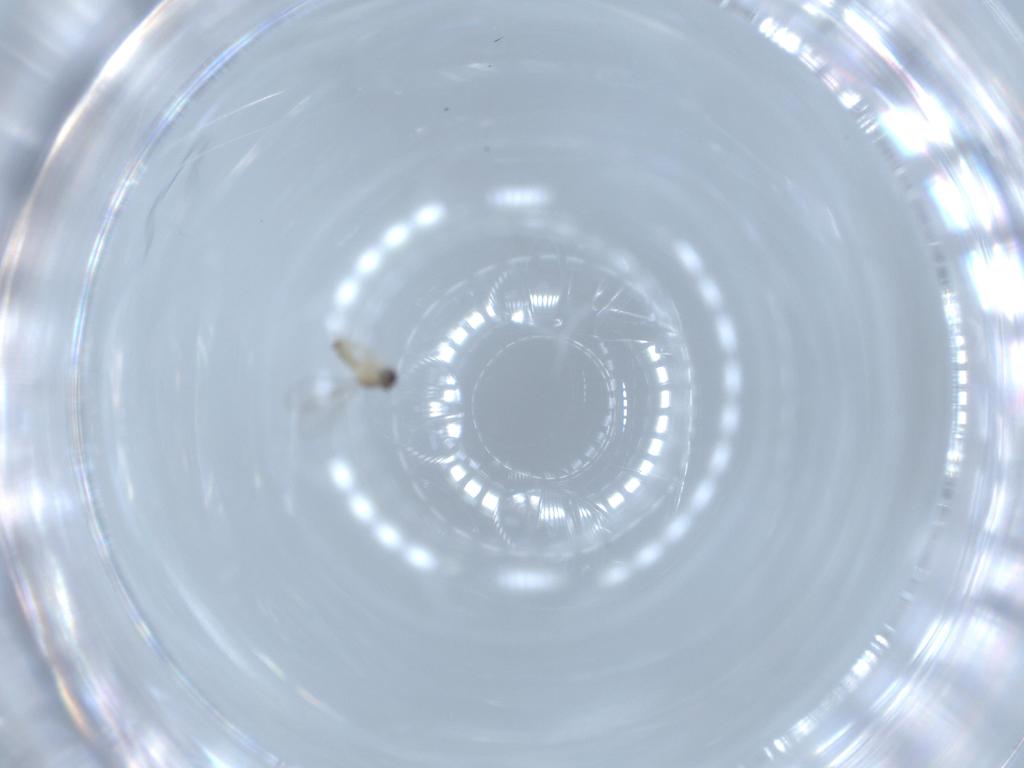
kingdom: Animalia
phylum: Arthropoda
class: Insecta
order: Diptera
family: Cecidomyiidae
